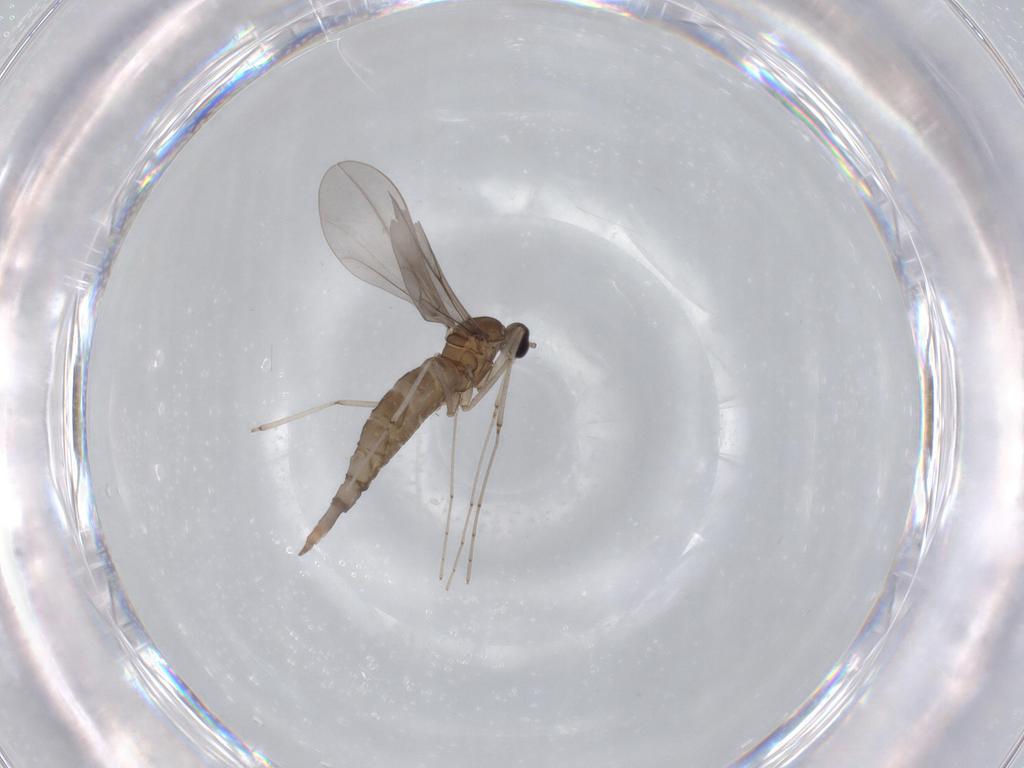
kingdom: Animalia
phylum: Arthropoda
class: Insecta
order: Diptera
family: Cecidomyiidae
